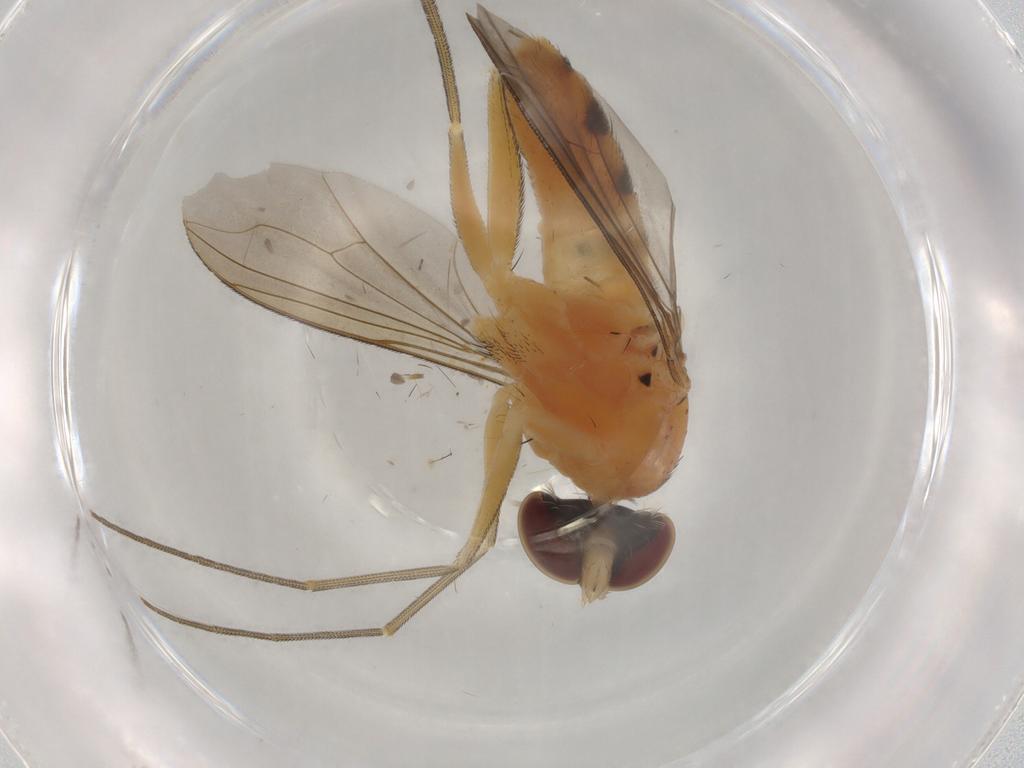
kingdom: Animalia
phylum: Arthropoda
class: Insecta
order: Diptera
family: Dolichopodidae
